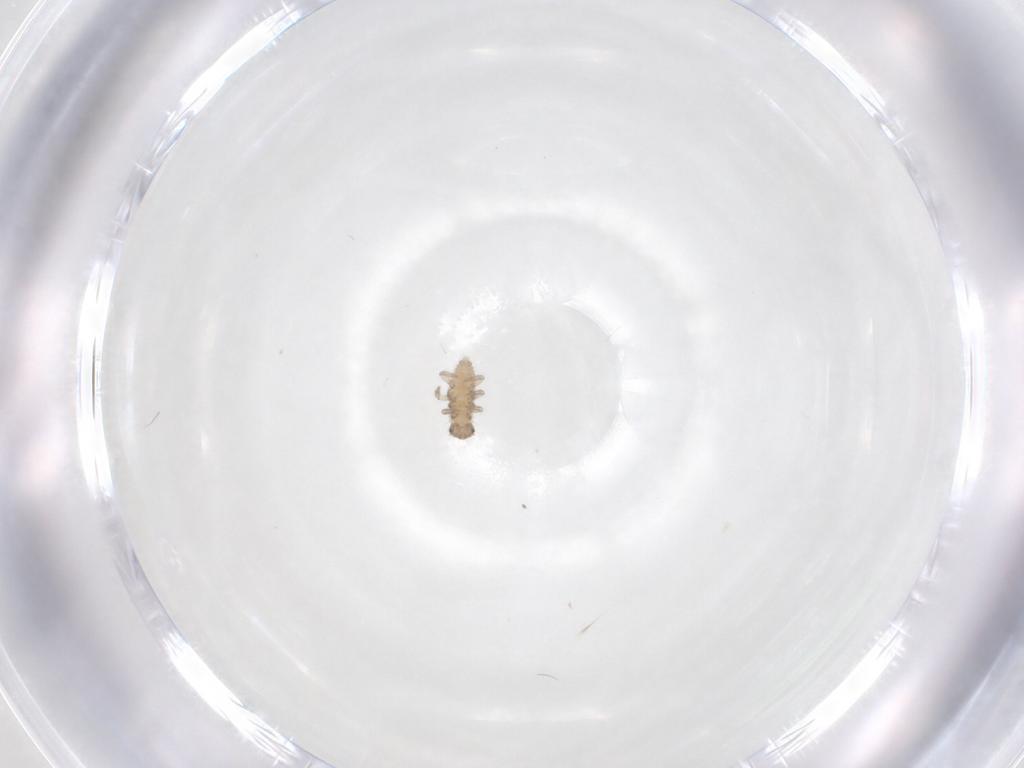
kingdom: Animalia
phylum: Arthropoda
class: Insecta
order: Coleoptera
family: Coccinellidae
